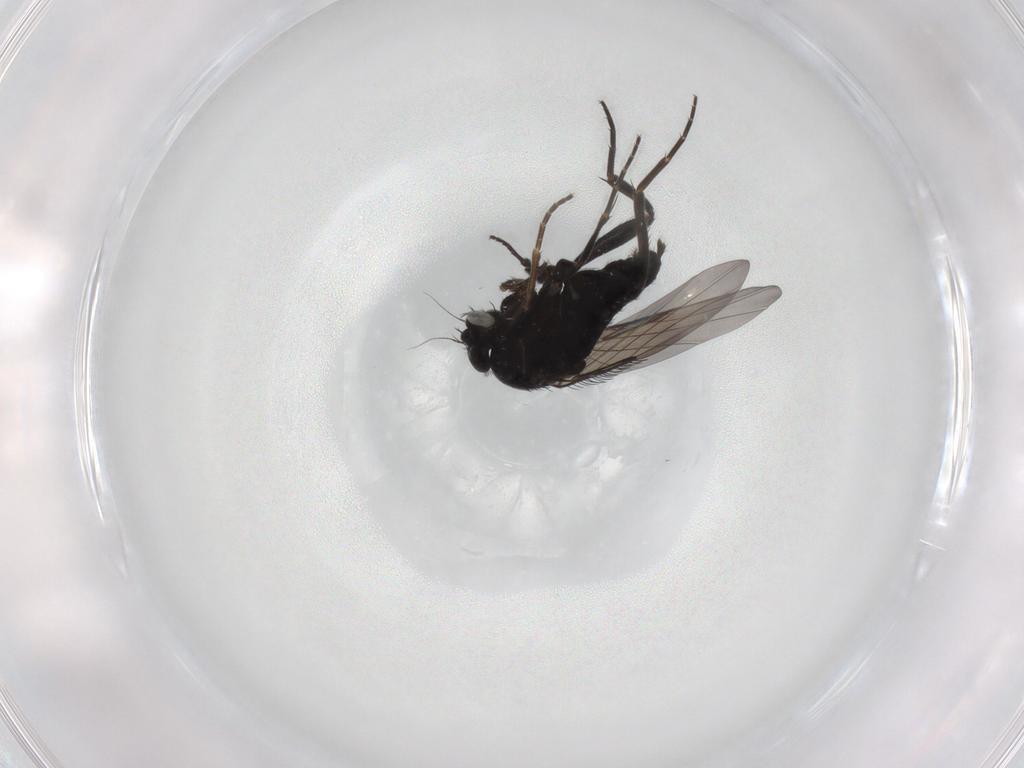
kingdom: Animalia
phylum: Arthropoda
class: Insecta
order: Diptera
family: Phoridae
